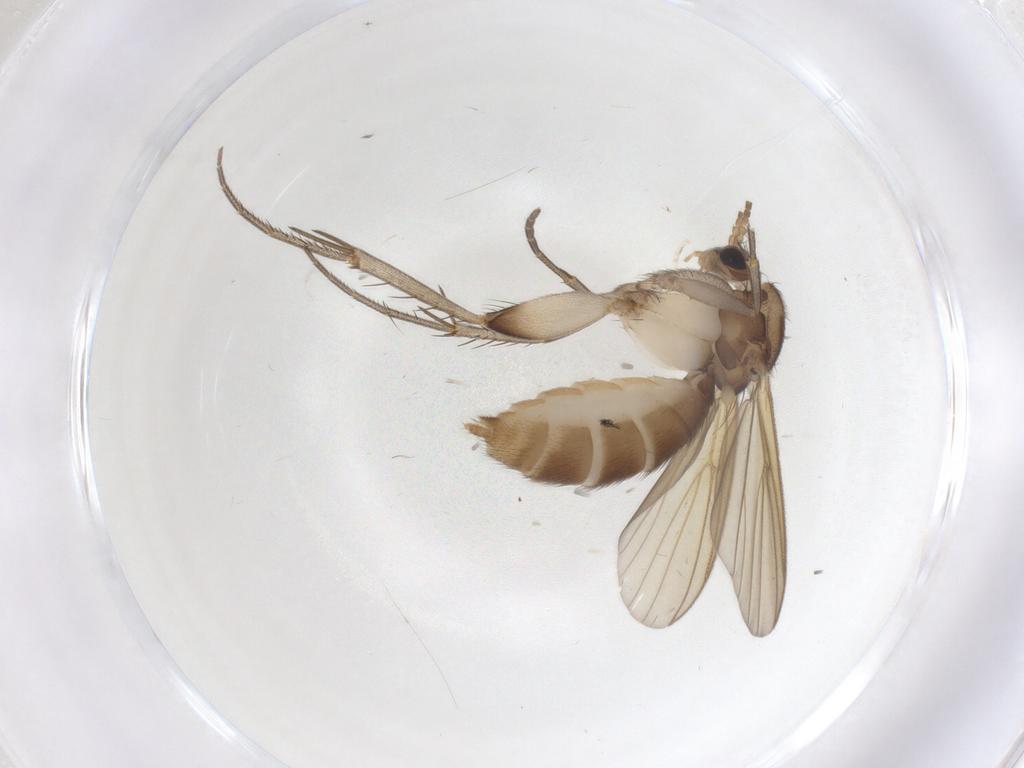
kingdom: Animalia
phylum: Arthropoda
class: Insecta
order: Diptera
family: Mycetophilidae
